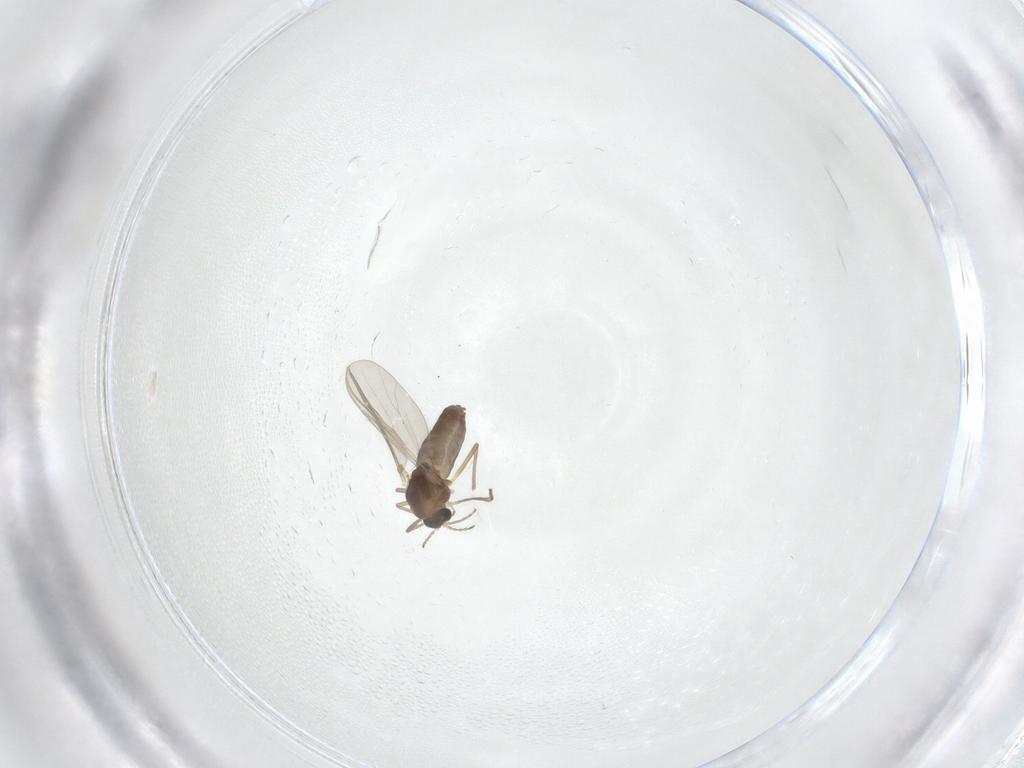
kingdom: Animalia
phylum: Arthropoda
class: Insecta
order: Diptera
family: Chironomidae
